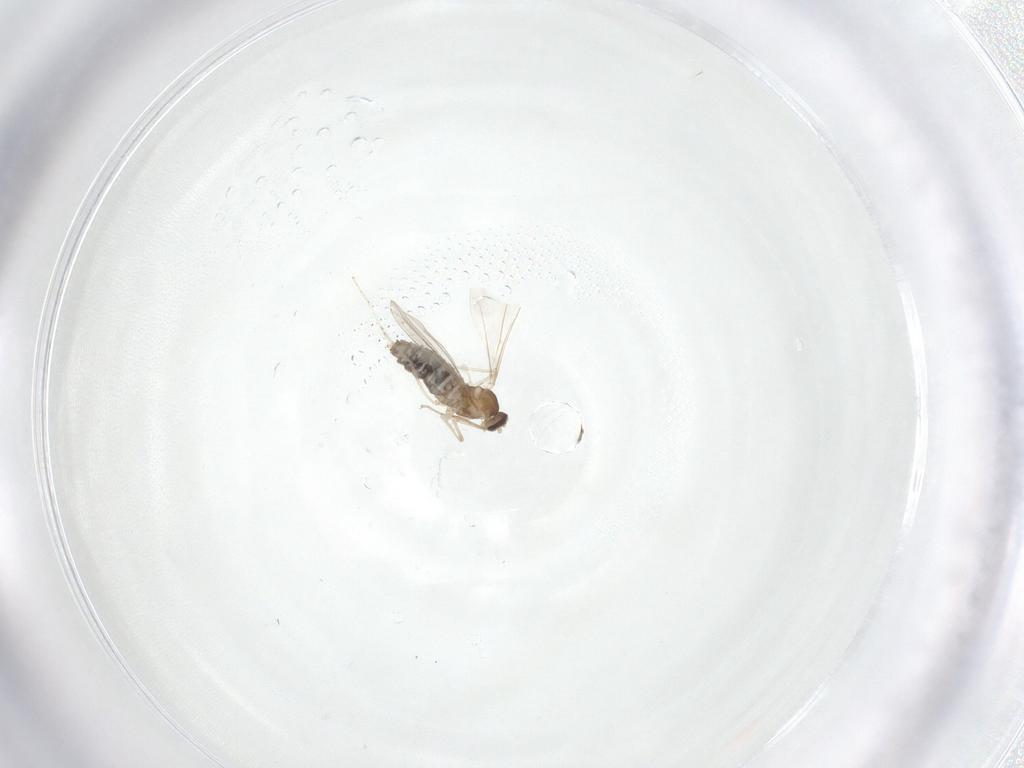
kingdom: Animalia
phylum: Arthropoda
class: Insecta
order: Diptera
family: Cecidomyiidae
